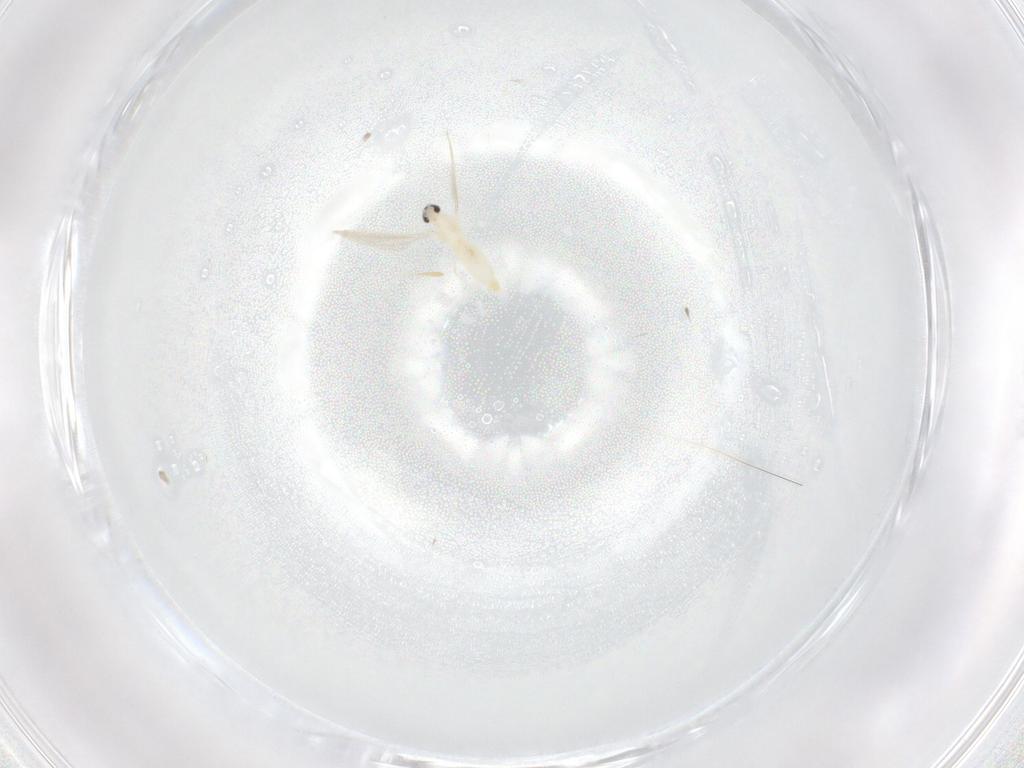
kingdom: Animalia
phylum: Arthropoda
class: Insecta
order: Diptera
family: Cecidomyiidae
